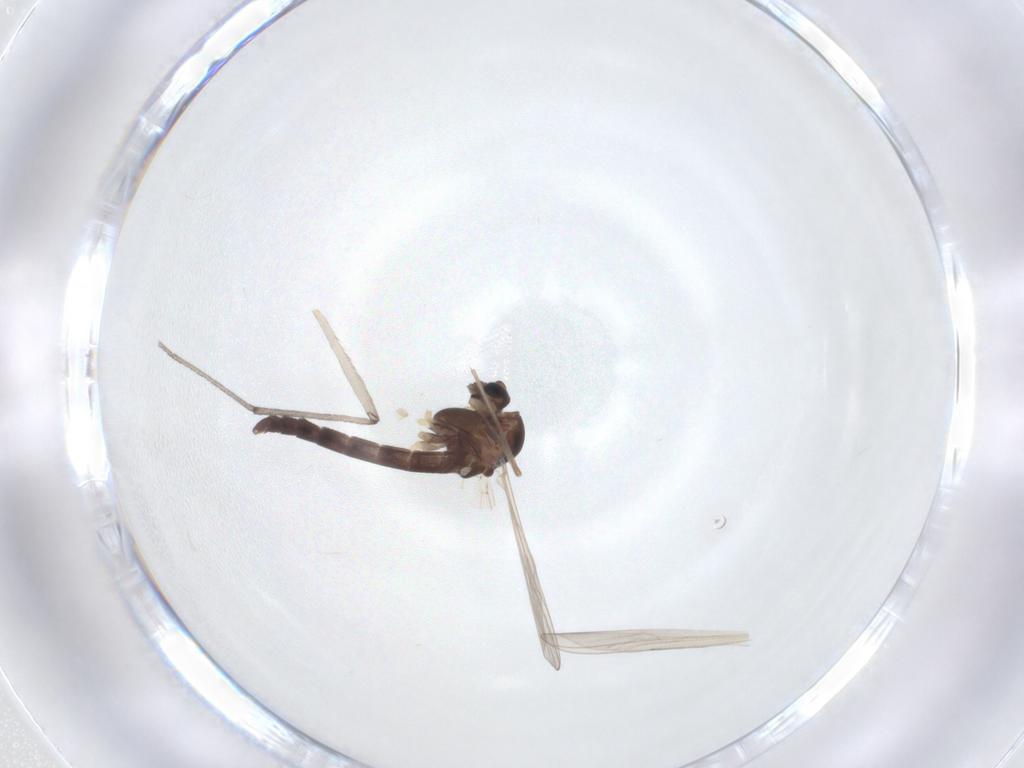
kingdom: Animalia
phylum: Arthropoda
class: Insecta
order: Diptera
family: Chironomidae
